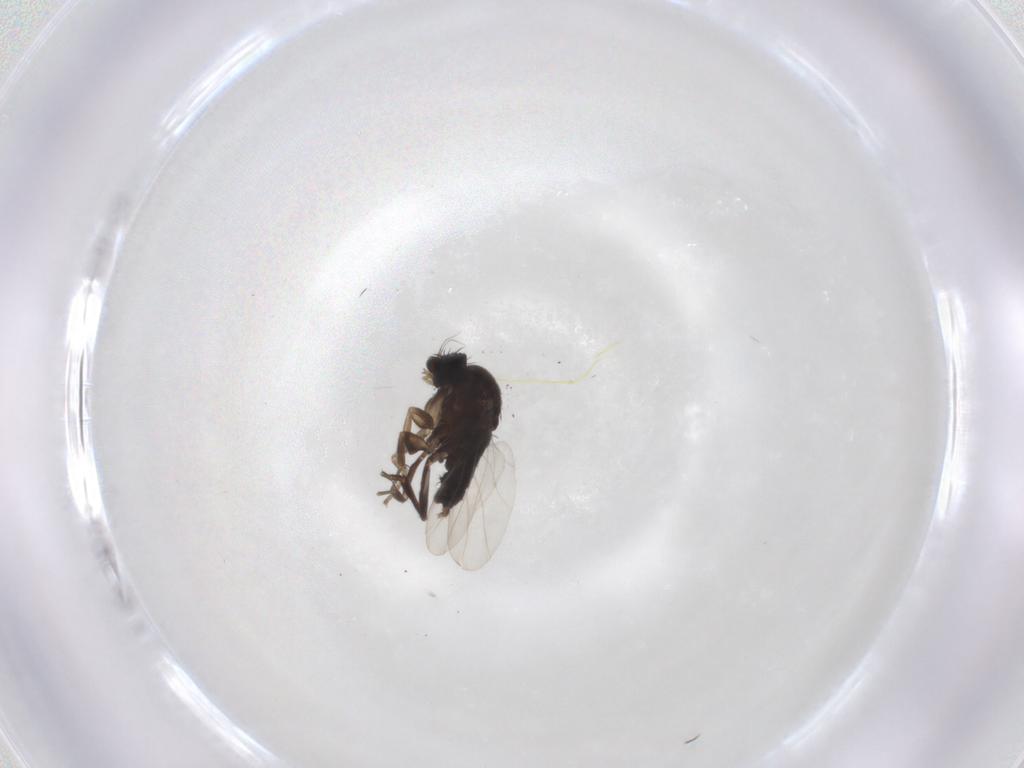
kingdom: Animalia
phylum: Arthropoda
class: Insecta
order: Diptera
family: Phoridae
